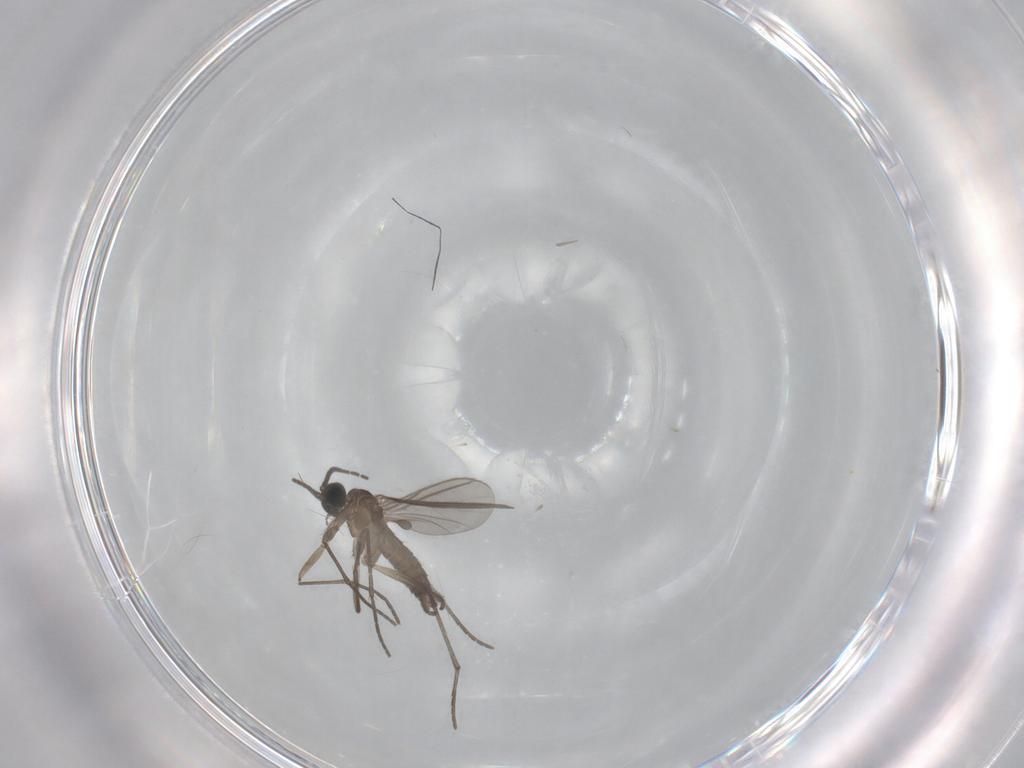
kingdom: Animalia
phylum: Arthropoda
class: Insecta
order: Diptera
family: Sciaridae
